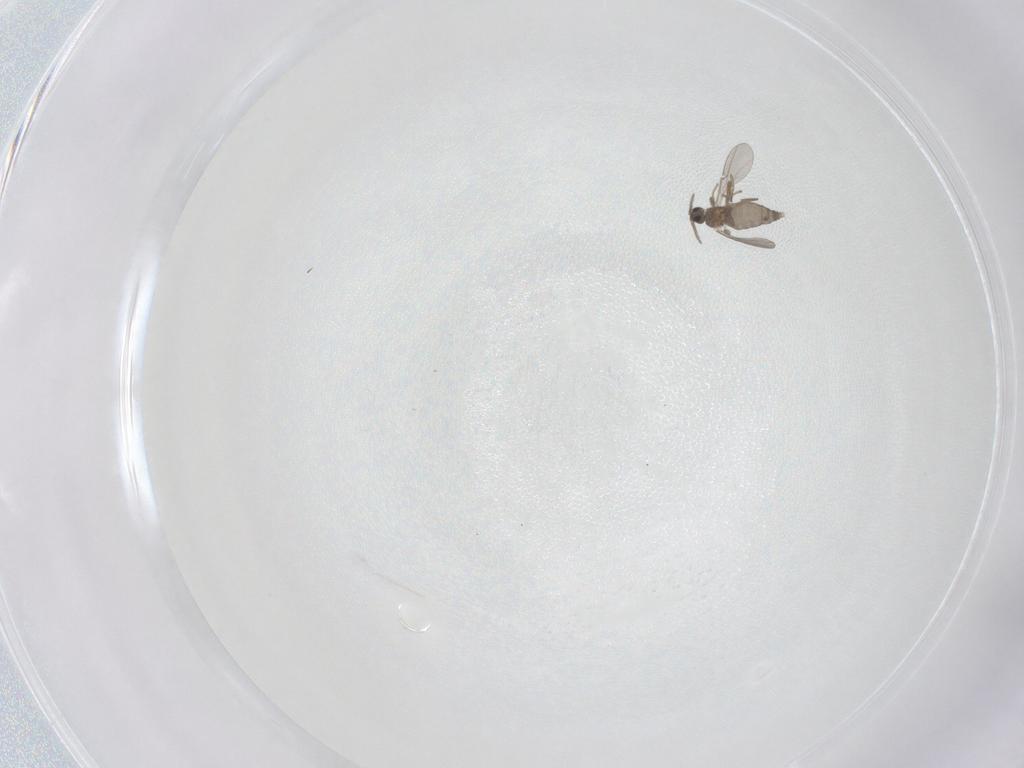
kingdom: Animalia
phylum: Arthropoda
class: Insecta
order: Diptera
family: Cecidomyiidae
